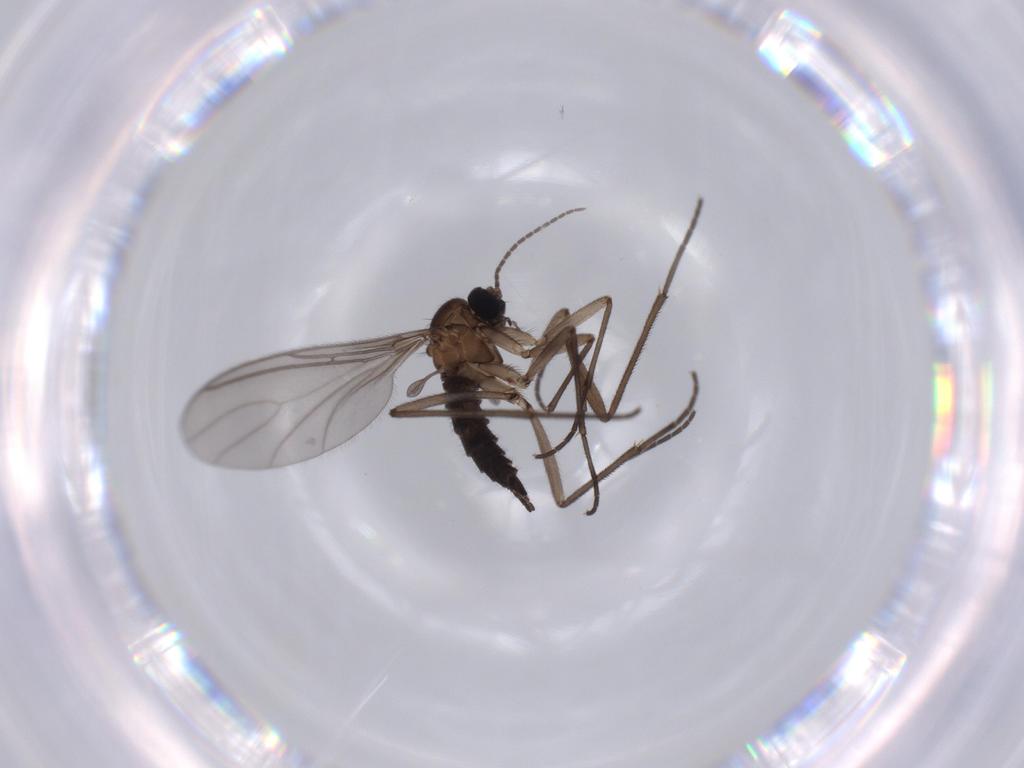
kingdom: Animalia
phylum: Arthropoda
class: Insecta
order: Diptera
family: Sciaridae
